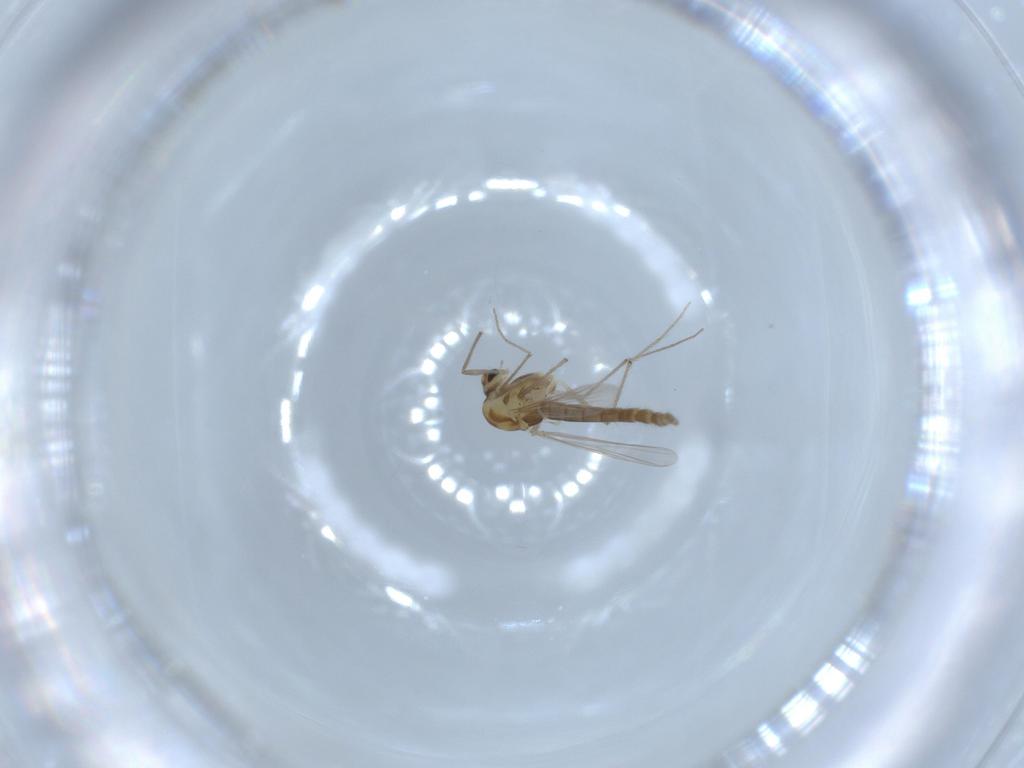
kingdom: Animalia
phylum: Arthropoda
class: Insecta
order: Diptera
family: Chironomidae
